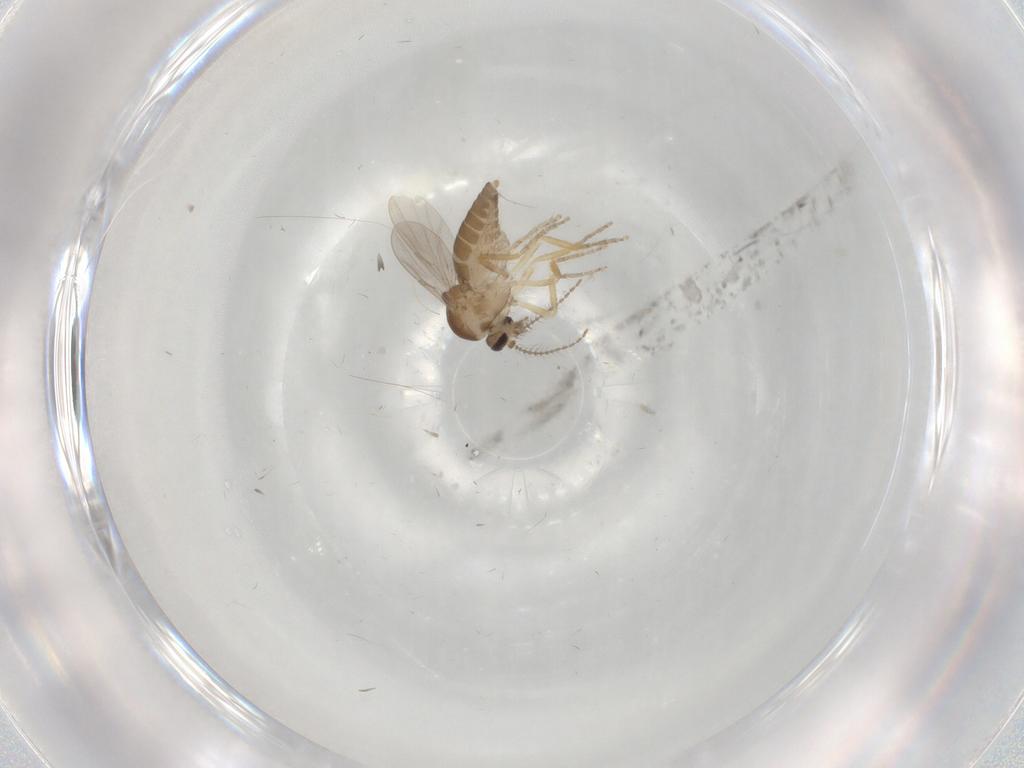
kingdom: Animalia
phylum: Arthropoda
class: Insecta
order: Diptera
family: Ceratopogonidae
